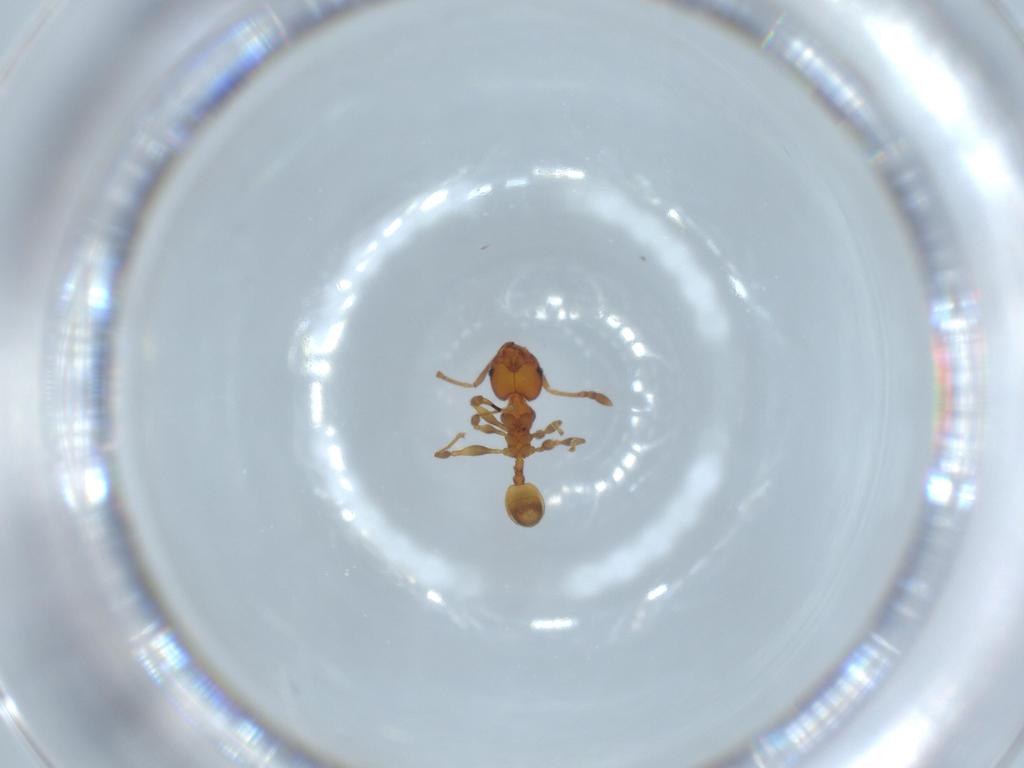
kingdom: Animalia
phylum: Arthropoda
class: Insecta
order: Hymenoptera
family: Formicidae
